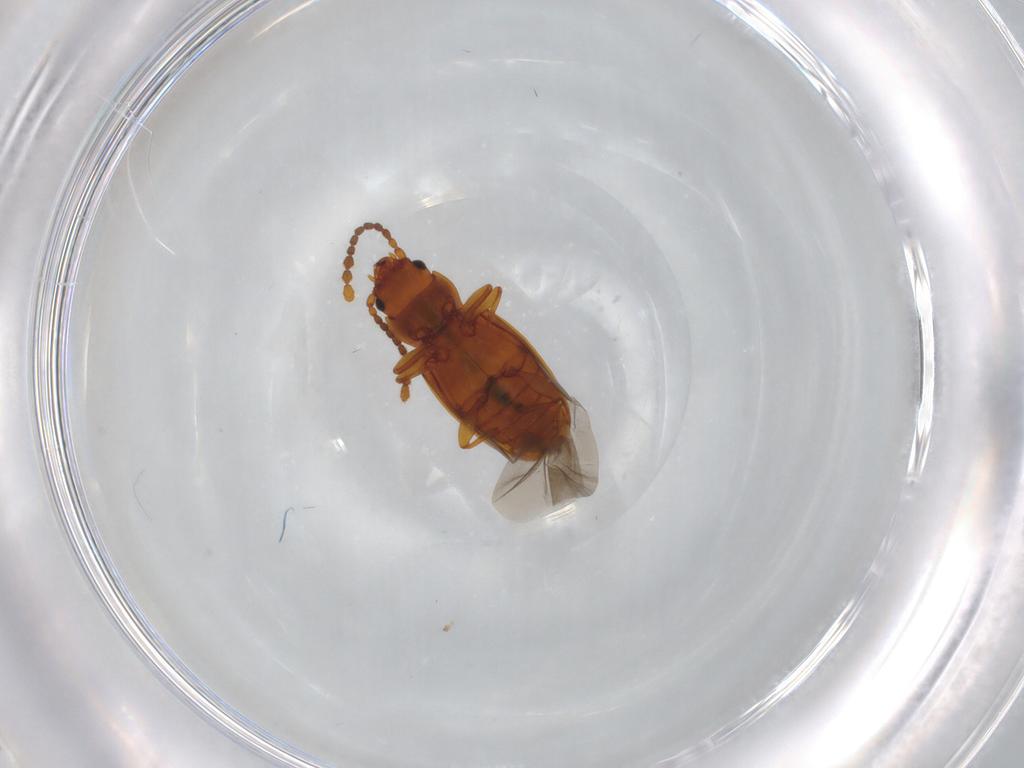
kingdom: Animalia
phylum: Arthropoda
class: Insecta
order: Coleoptera
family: Laemophloeidae
